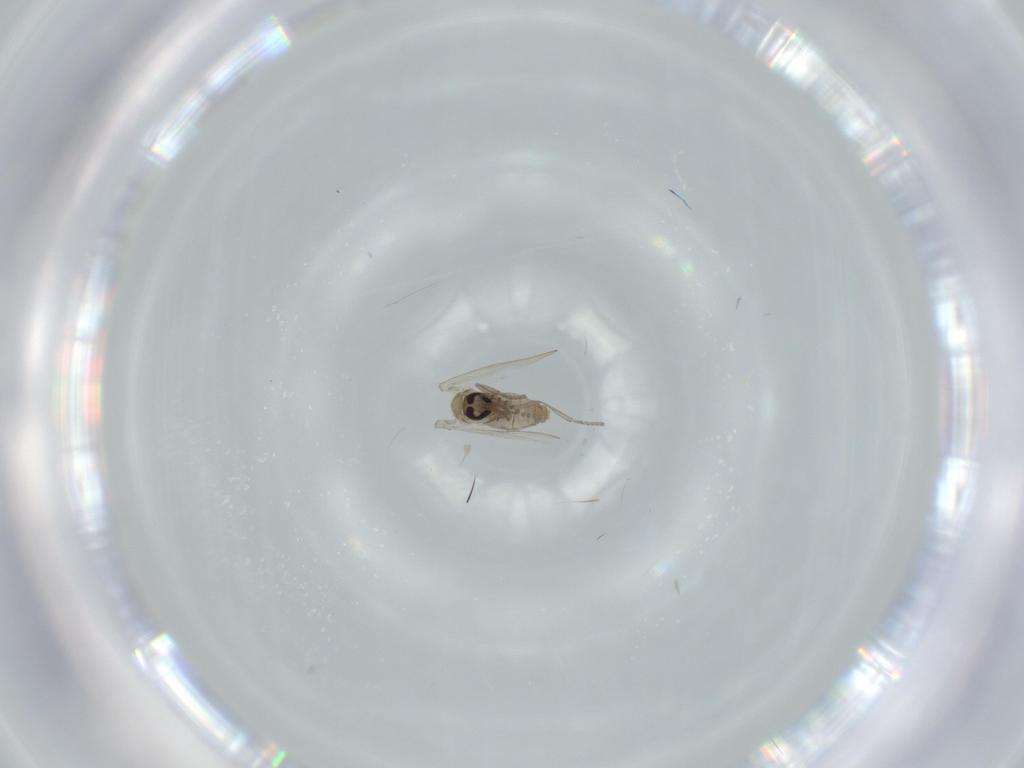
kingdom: Animalia
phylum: Arthropoda
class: Insecta
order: Diptera
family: Psychodidae
